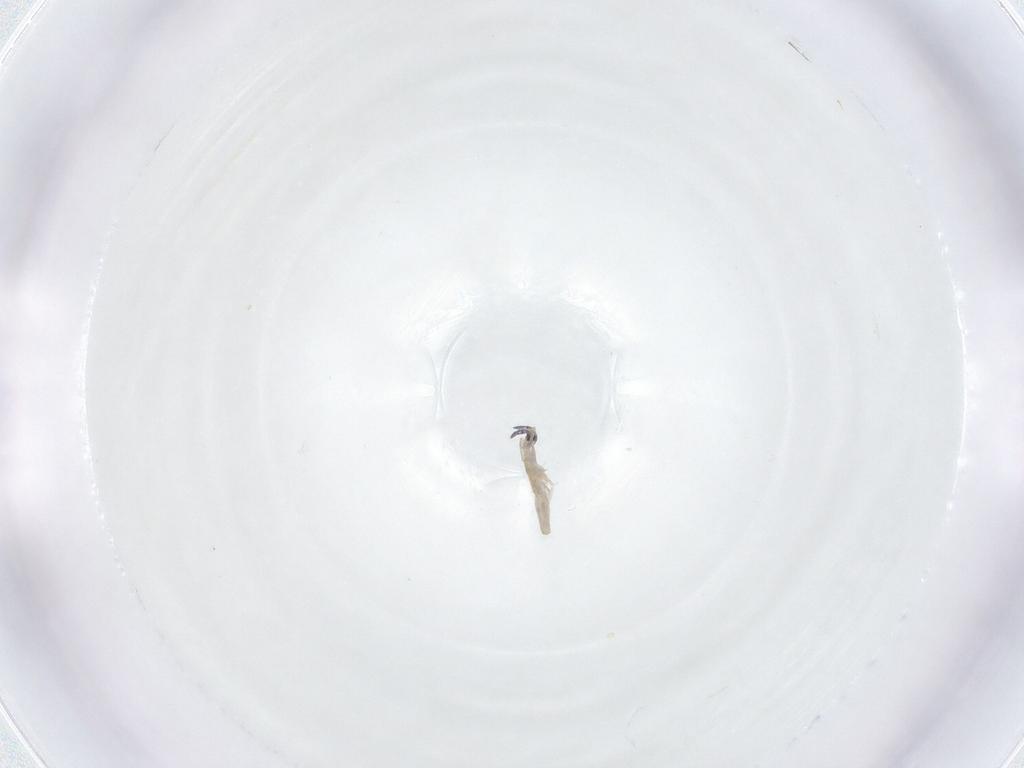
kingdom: Animalia
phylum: Arthropoda
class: Collembola
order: Entomobryomorpha
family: Entomobryidae
